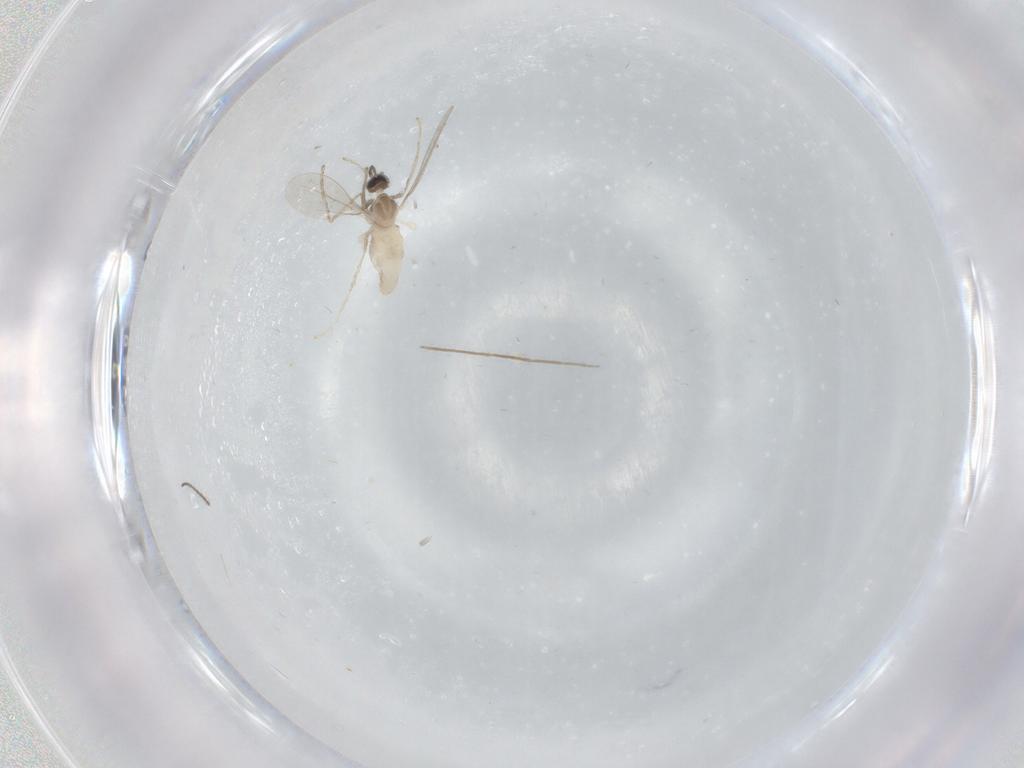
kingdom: Animalia
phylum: Arthropoda
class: Insecta
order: Diptera
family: Cecidomyiidae
